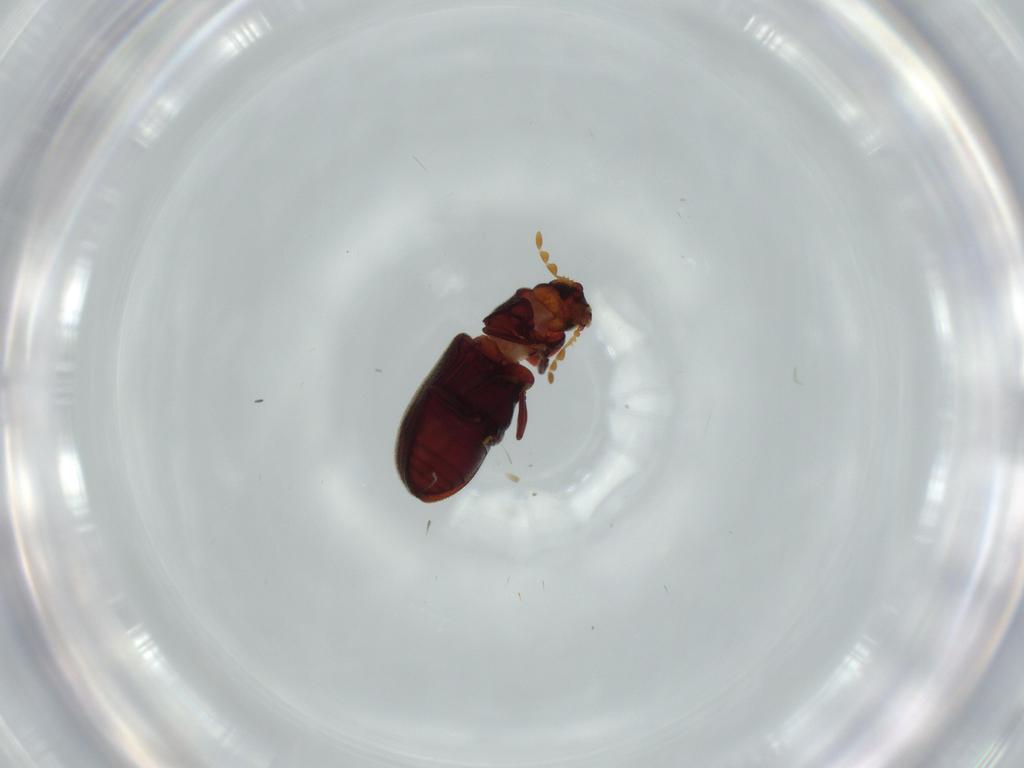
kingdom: Animalia
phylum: Arthropoda
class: Insecta
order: Coleoptera
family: Anobiidae
